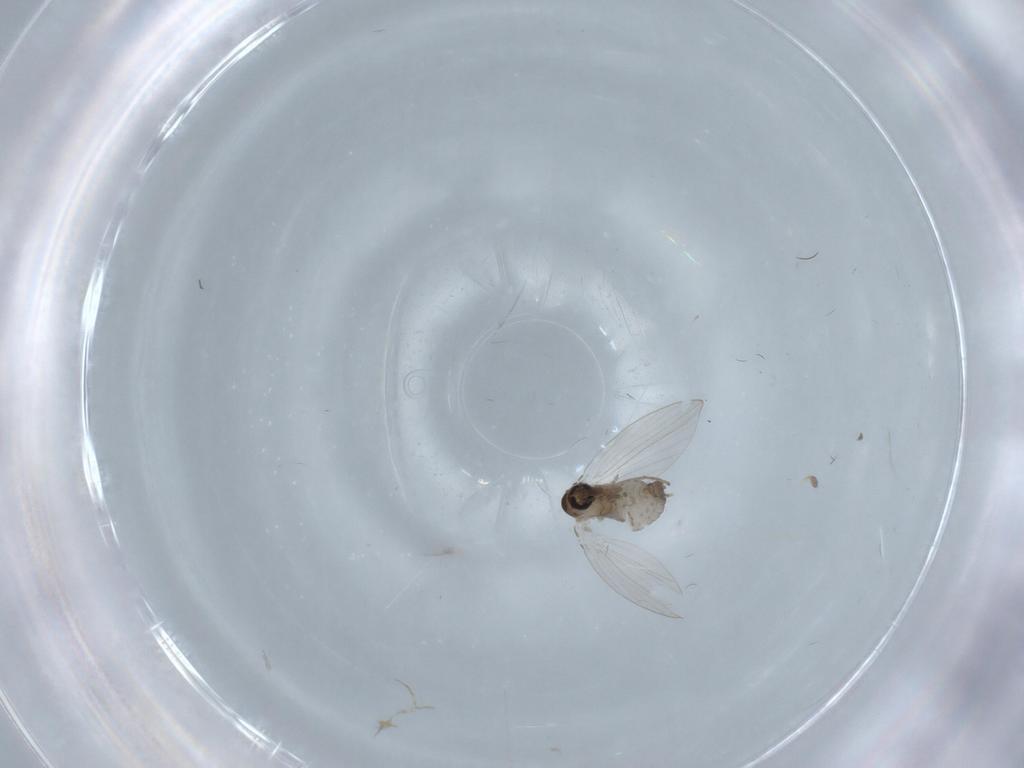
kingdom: Animalia
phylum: Arthropoda
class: Insecta
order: Diptera
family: Psychodidae
